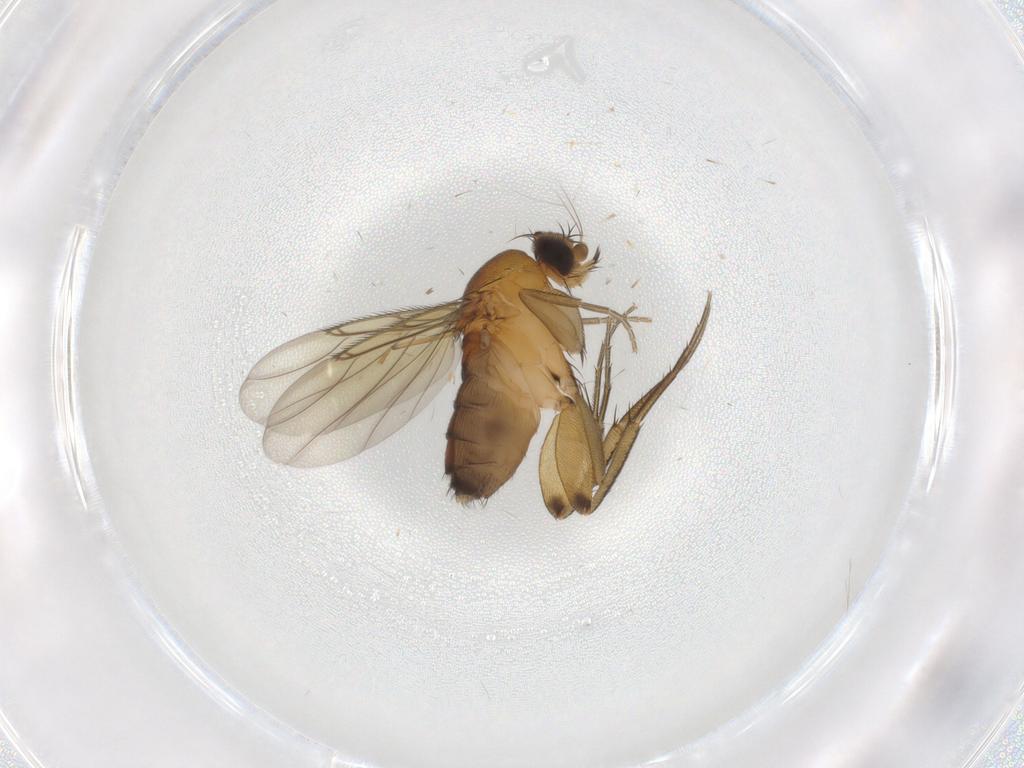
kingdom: Animalia
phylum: Arthropoda
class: Insecta
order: Diptera
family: Phoridae
